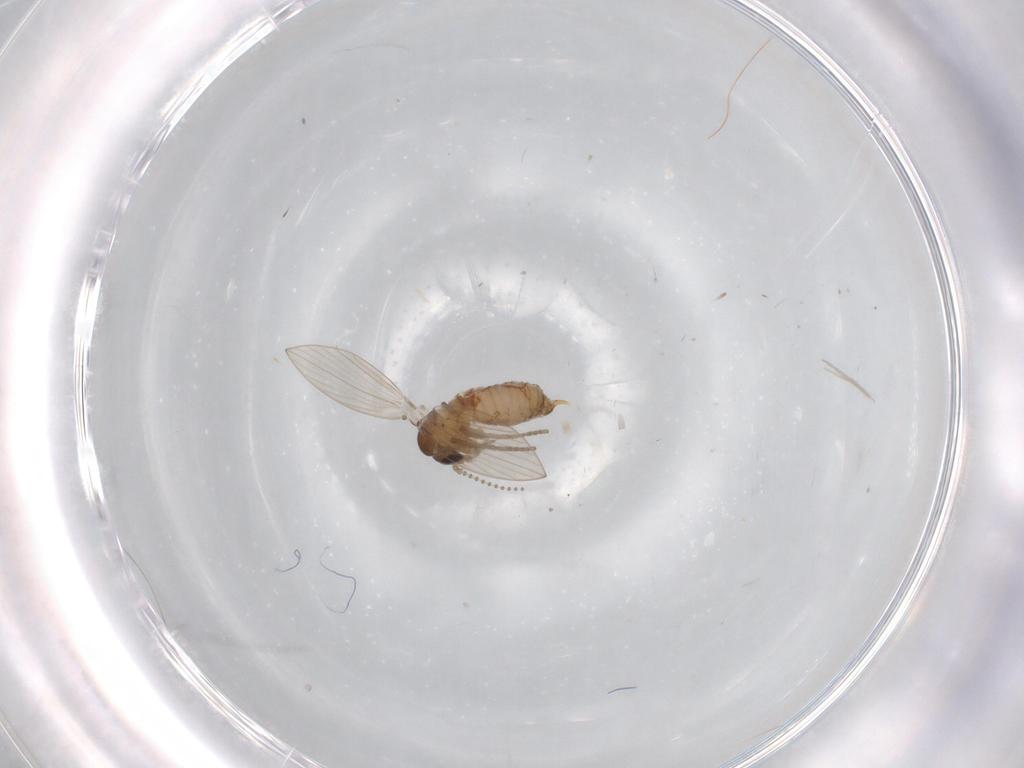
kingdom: Animalia
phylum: Arthropoda
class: Insecta
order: Diptera
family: Psychodidae
